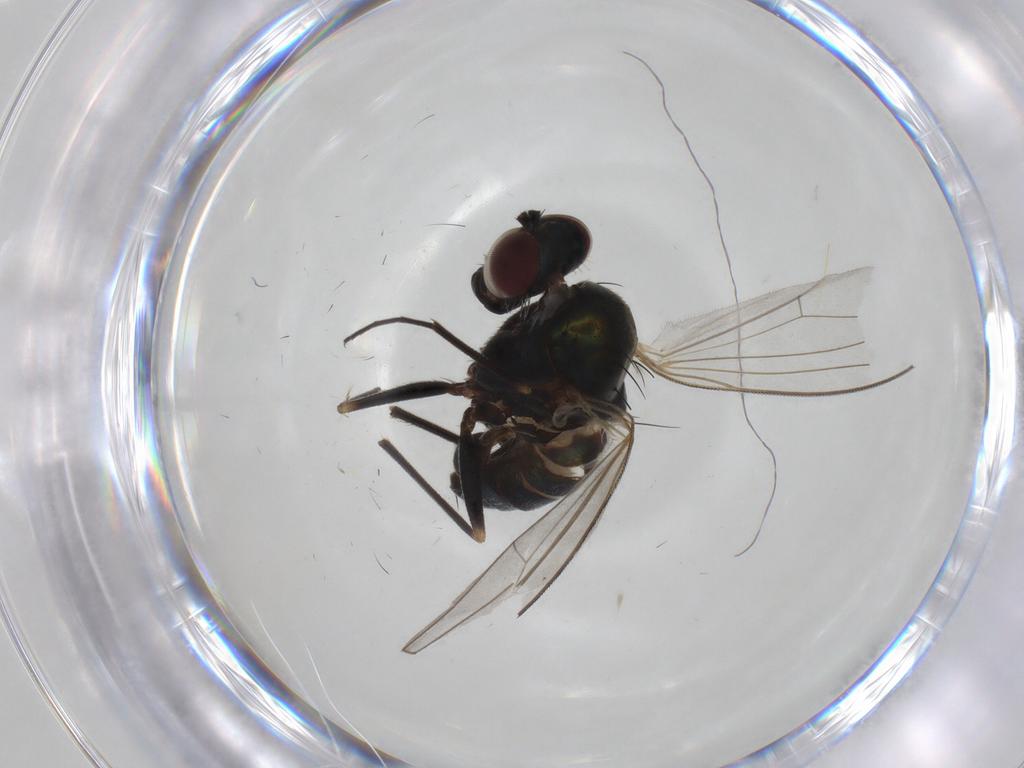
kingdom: Animalia
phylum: Arthropoda
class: Insecta
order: Diptera
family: Dolichopodidae
